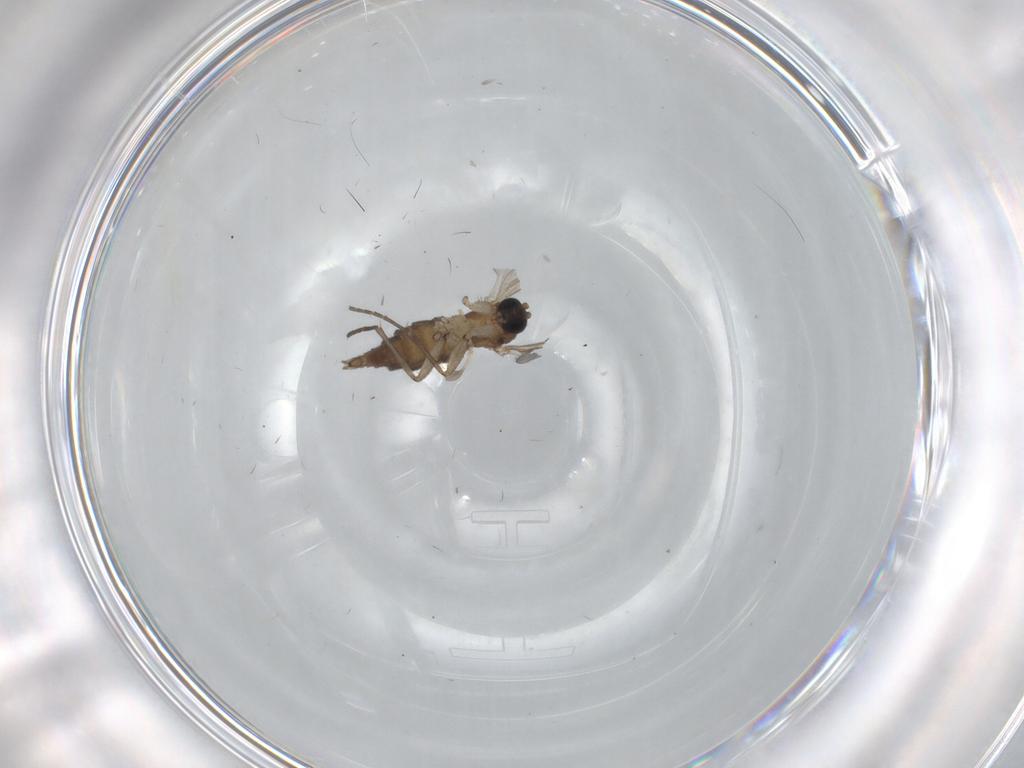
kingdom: Animalia
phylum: Arthropoda
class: Insecta
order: Diptera
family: Sciaridae
